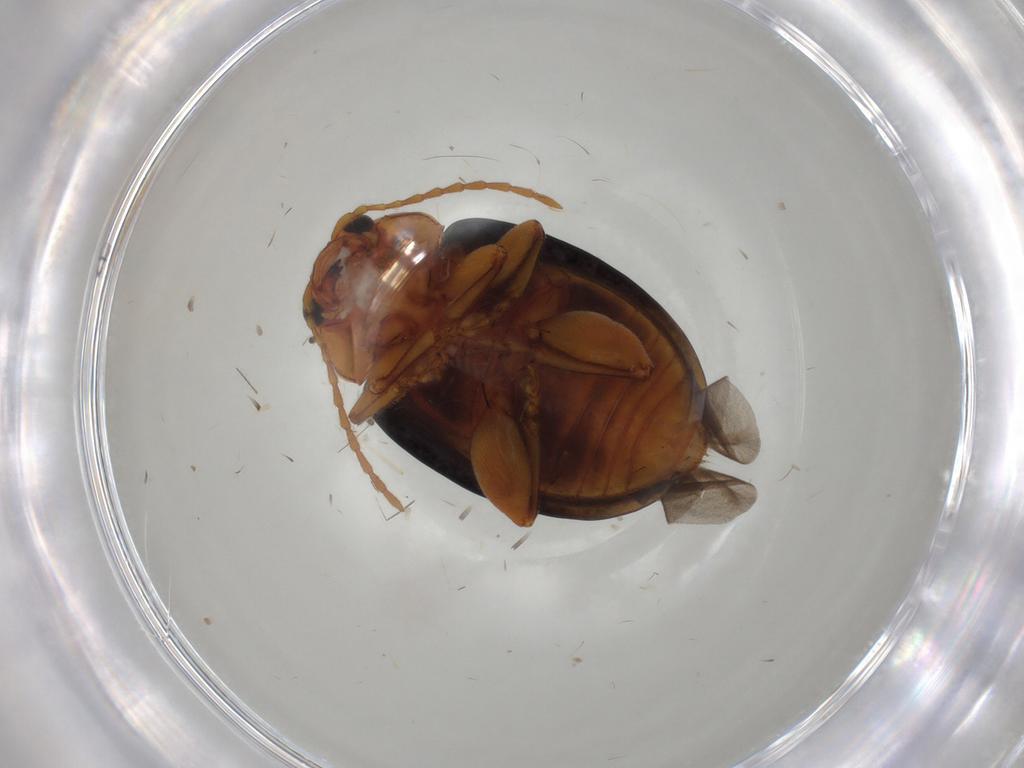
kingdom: Animalia
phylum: Arthropoda
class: Insecta
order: Coleoptera
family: Chrysomelidae
